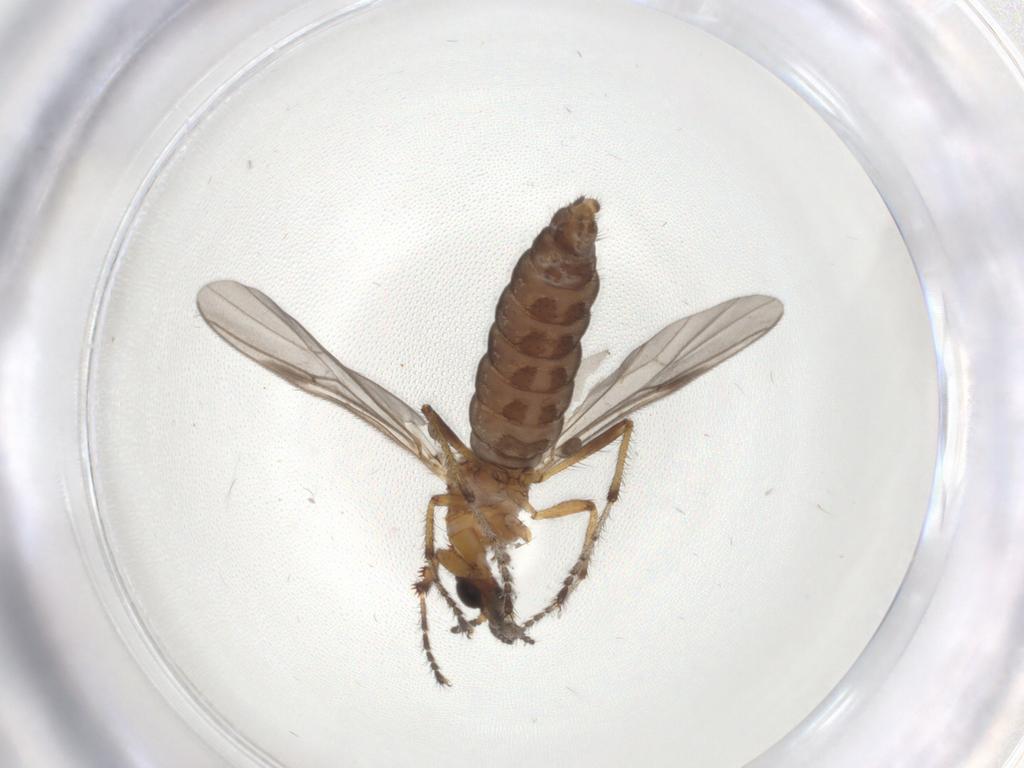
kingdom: Animalia
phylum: Arthropoda
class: Insecta
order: Diptera
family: Bibionidae
